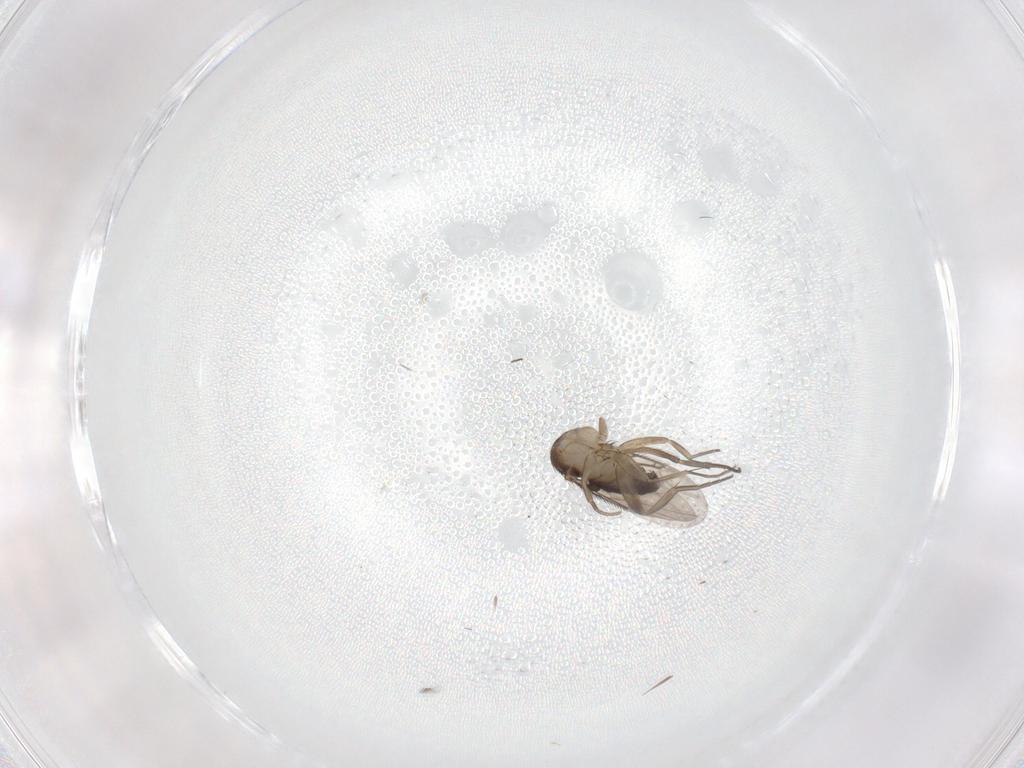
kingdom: Animalia
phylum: Arthropoda
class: Insecta
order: Diptera
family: Phoridae
